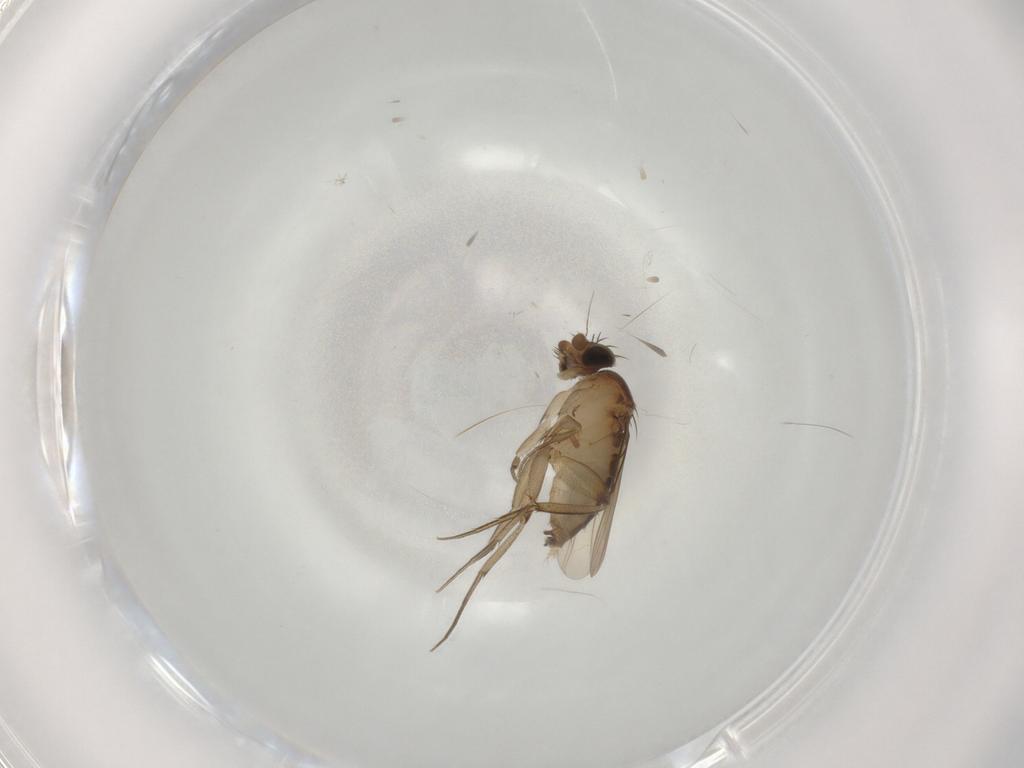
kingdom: Animalia
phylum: Arthropoda
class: Insecta
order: Diptera
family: Phoridae
